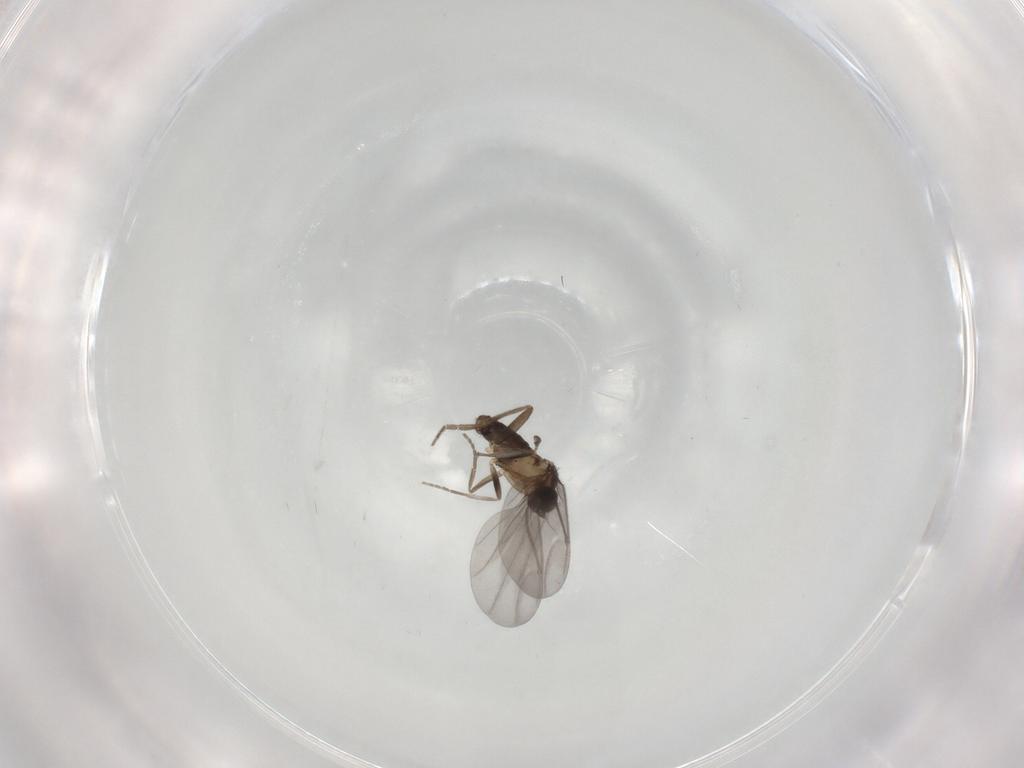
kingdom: Animalia
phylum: Arthropoda
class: Insecta
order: Diptera
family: Phoridae
